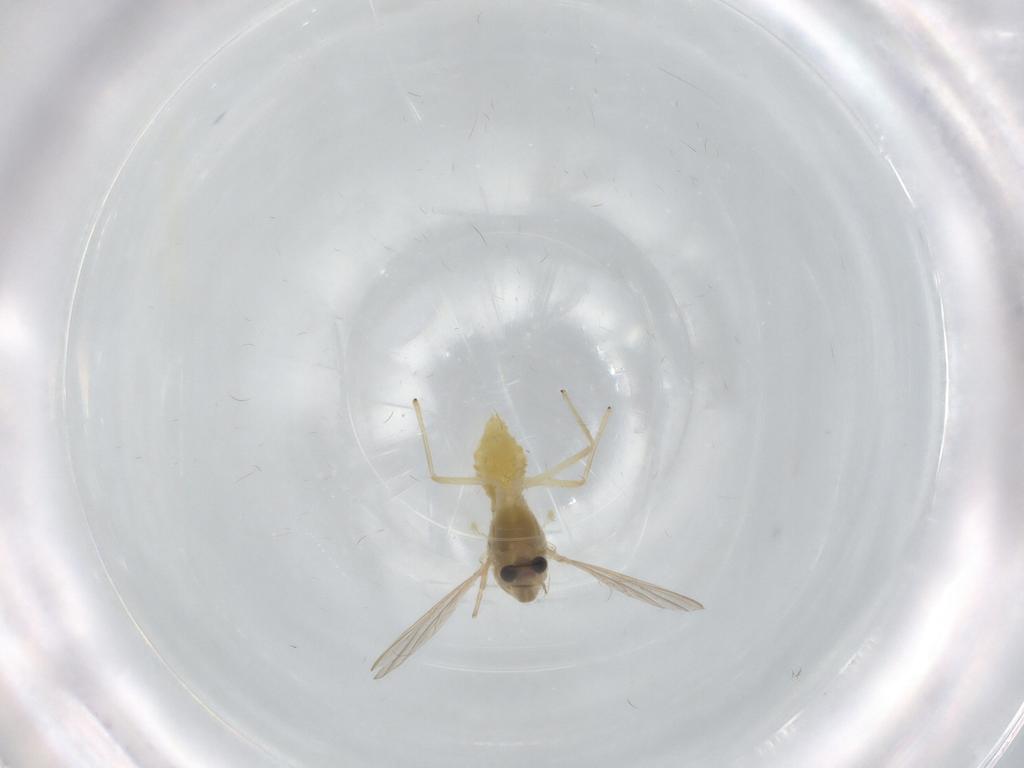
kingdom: Animalia
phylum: Arthropoda
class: Insecta
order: Diptera
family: Chironomidae
